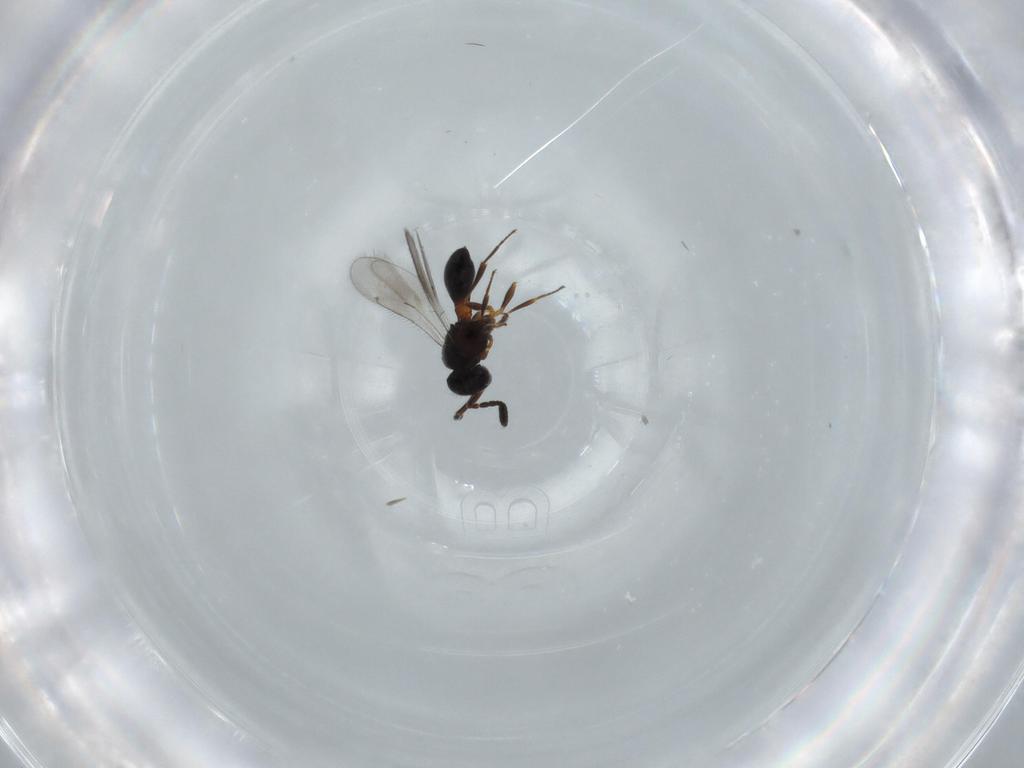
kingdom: Animalia
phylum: Arthropoda
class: Insecta
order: Hymenoptera
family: Scelionidae
